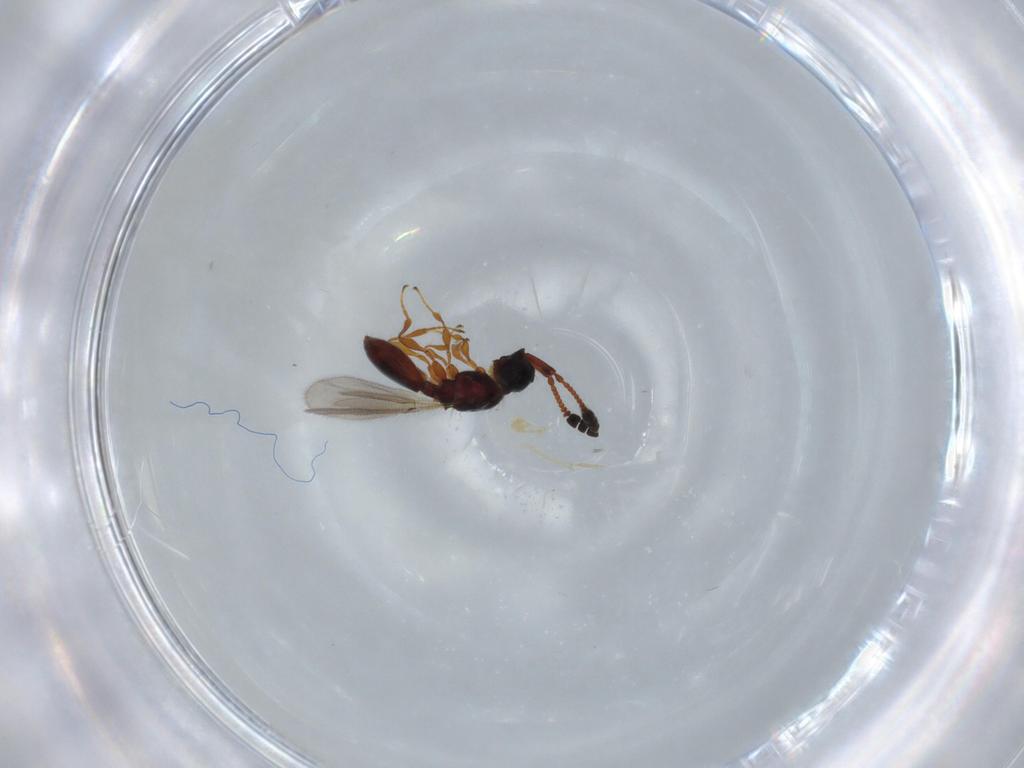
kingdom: Animalia
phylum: Arthropoda
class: Insecta
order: Hymenoptera
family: Diapriidae
